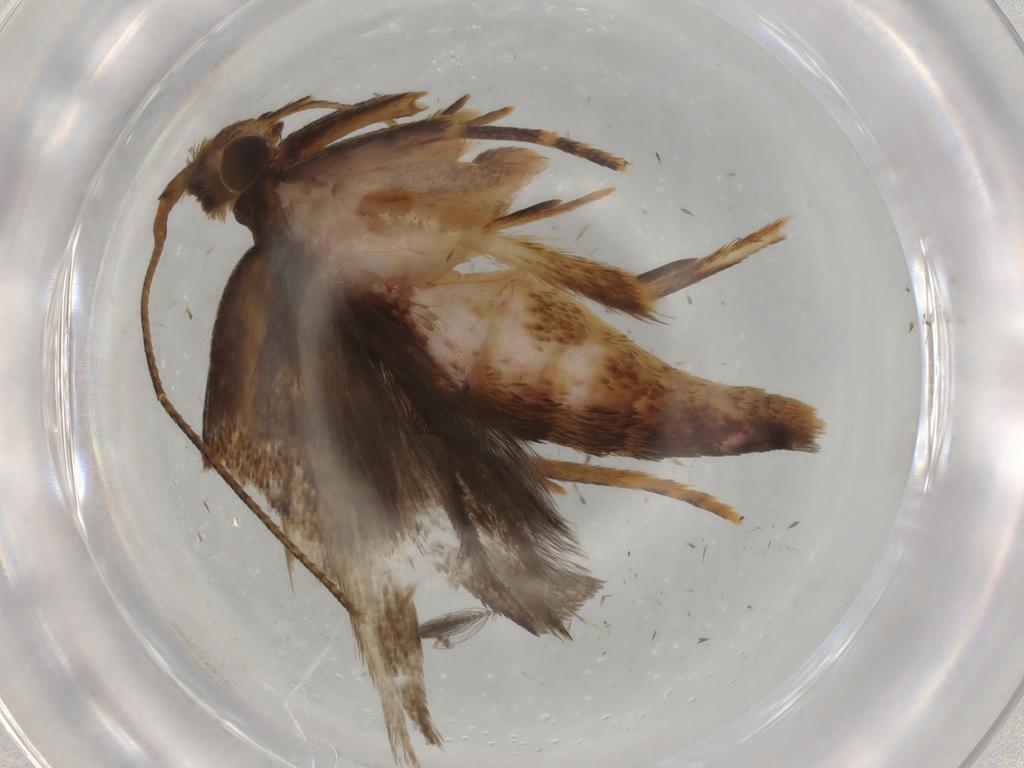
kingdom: Animalia
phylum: Arthropoda
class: Insecta
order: Lepidoptera
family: Autostichidae
